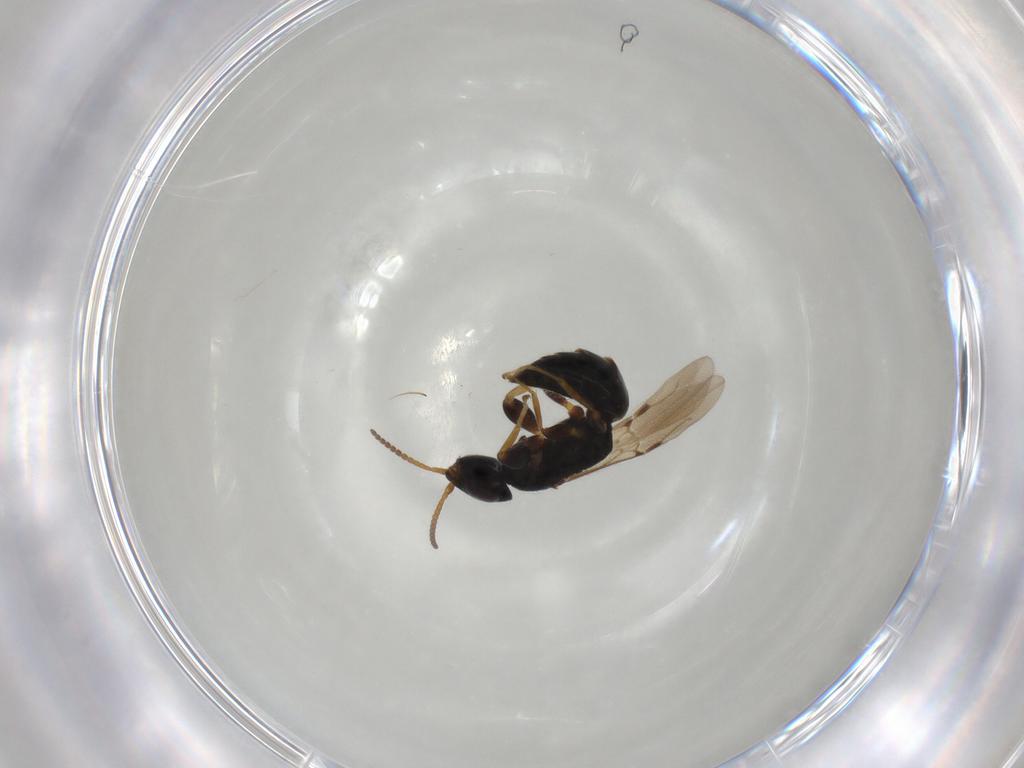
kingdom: Animalia
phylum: Arthropoda
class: Insecta
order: Hymenoptera
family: Bethylidae
